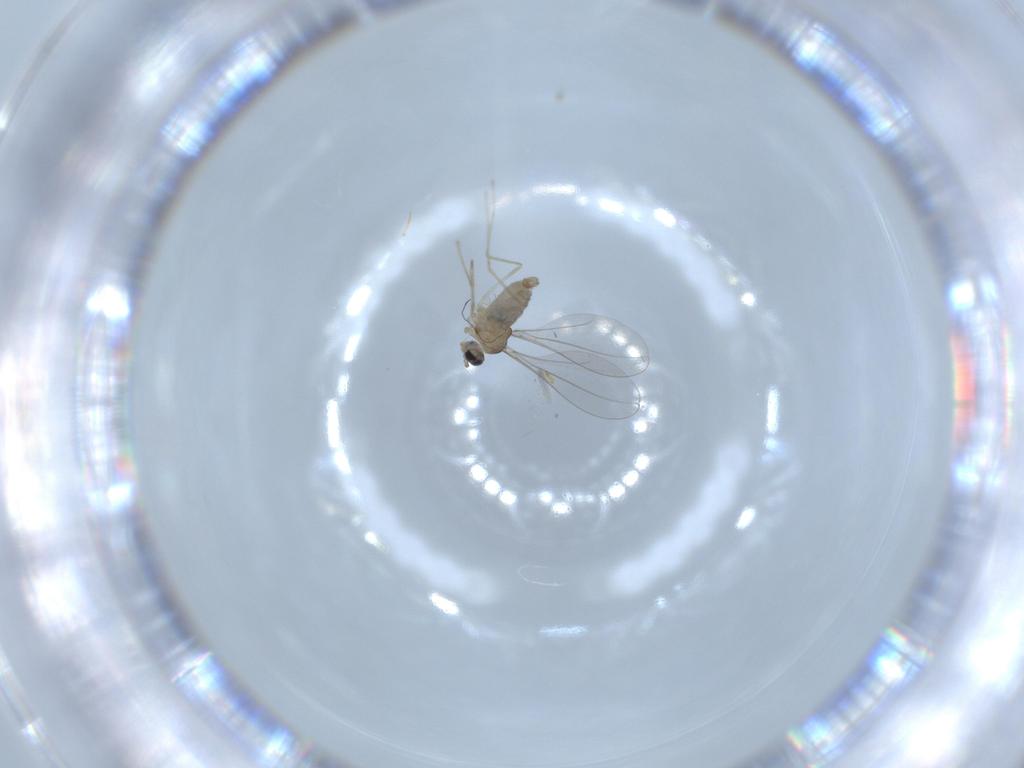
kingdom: Animalia
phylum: Arthropoda
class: Insecta
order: Diptera
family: Cecidomyiidae
